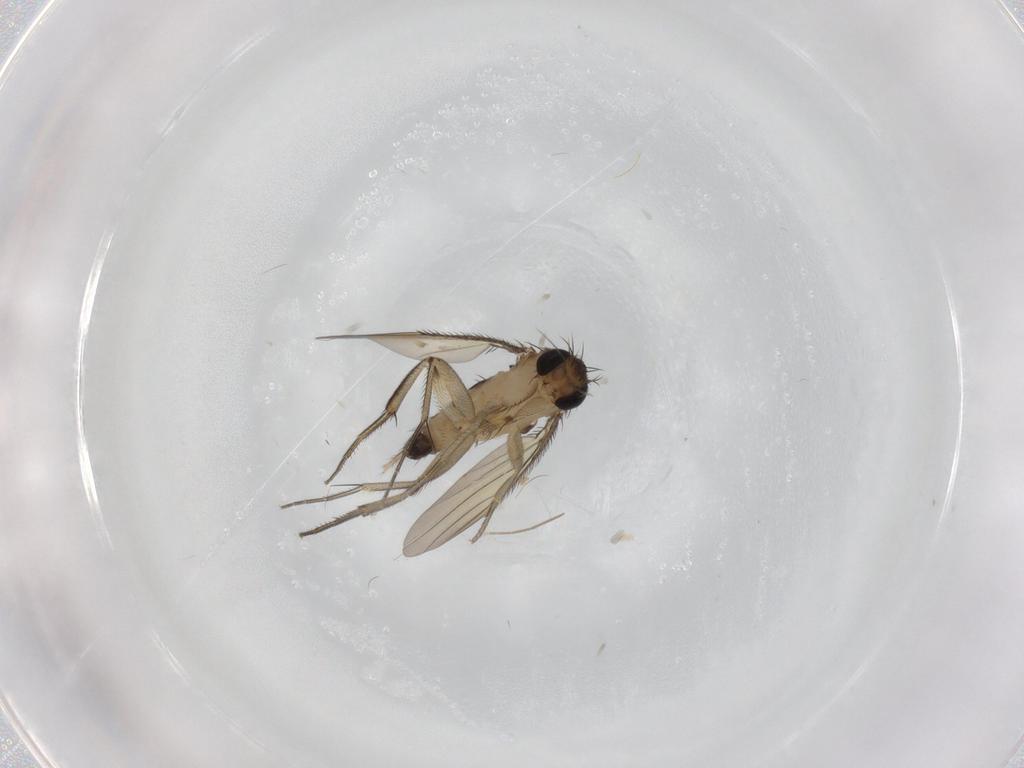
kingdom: Animalia
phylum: Arthropoda
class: Insecta
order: Diptera
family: Phoridae
